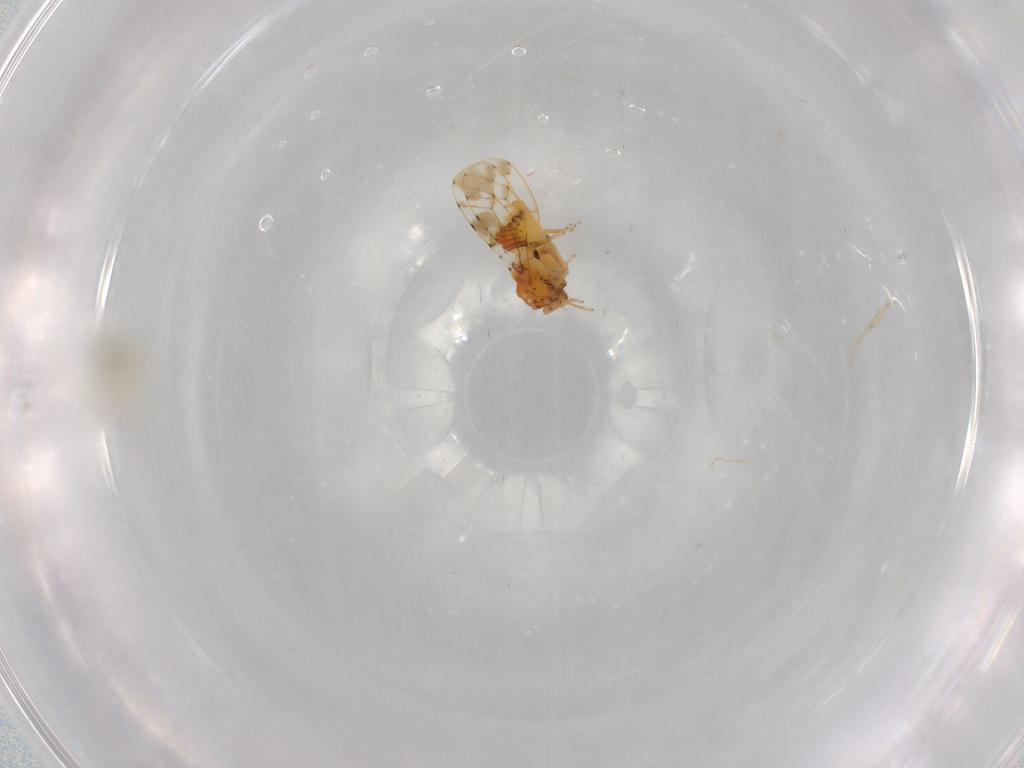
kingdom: Animalia
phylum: Arthropoda
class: Insecta
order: Hemiptera
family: Aleyrodidae
